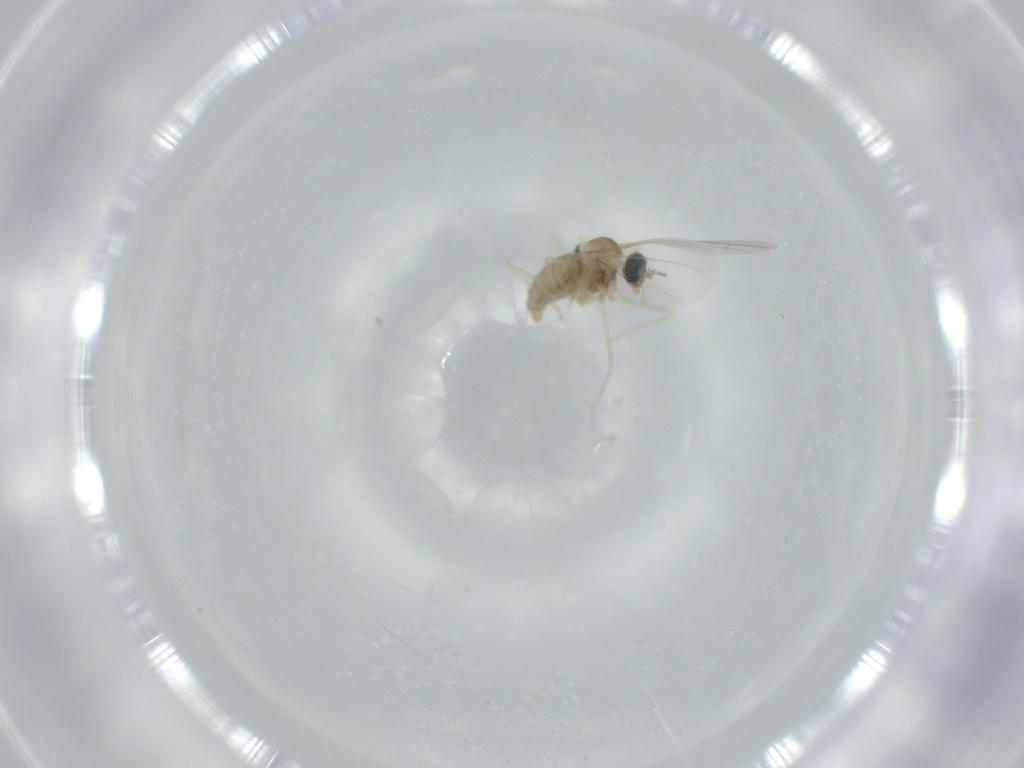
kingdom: Animalia
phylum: Arthropoda
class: Insecta
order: Diptera
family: Cecidomyiidae
